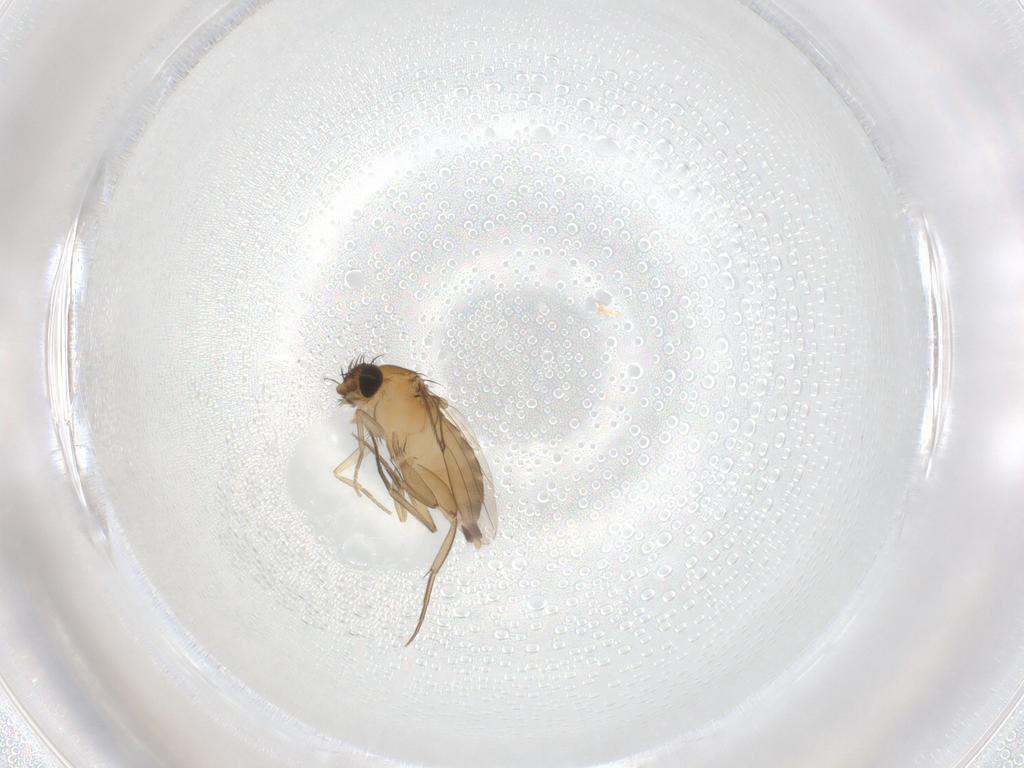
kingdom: Animalia
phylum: Arthropoda
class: Insecta
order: Diptera
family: Phoridae
